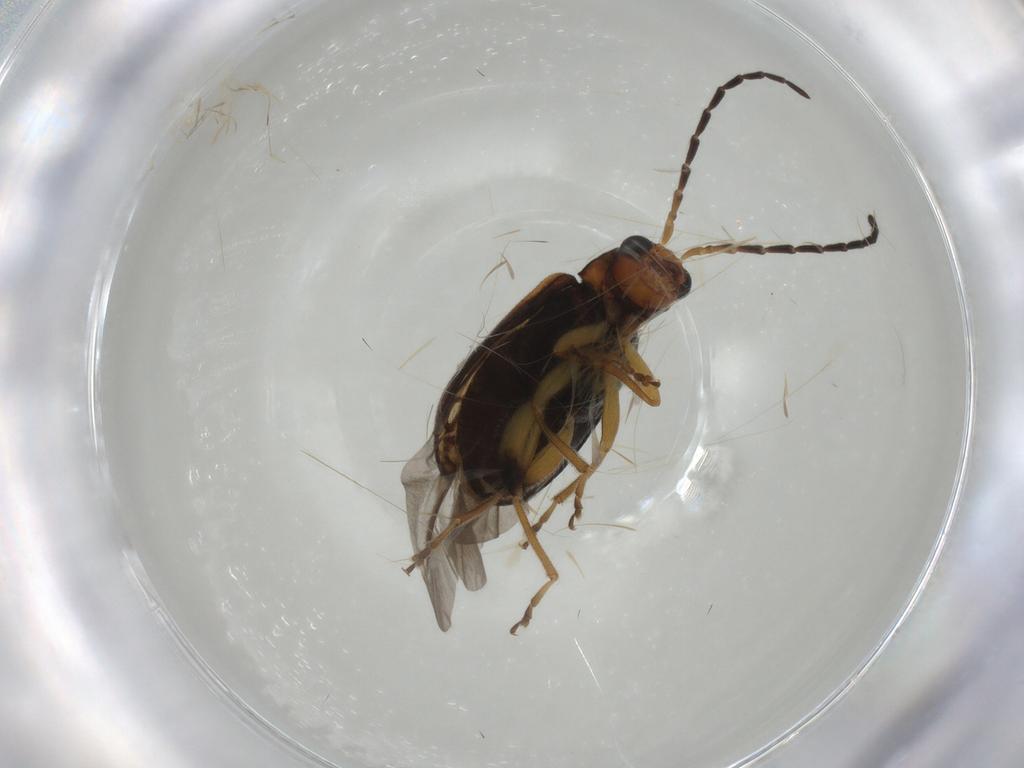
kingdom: Animalia
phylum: Arthropoda
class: Insecta
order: Coleoptera
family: Chrysomelidae
